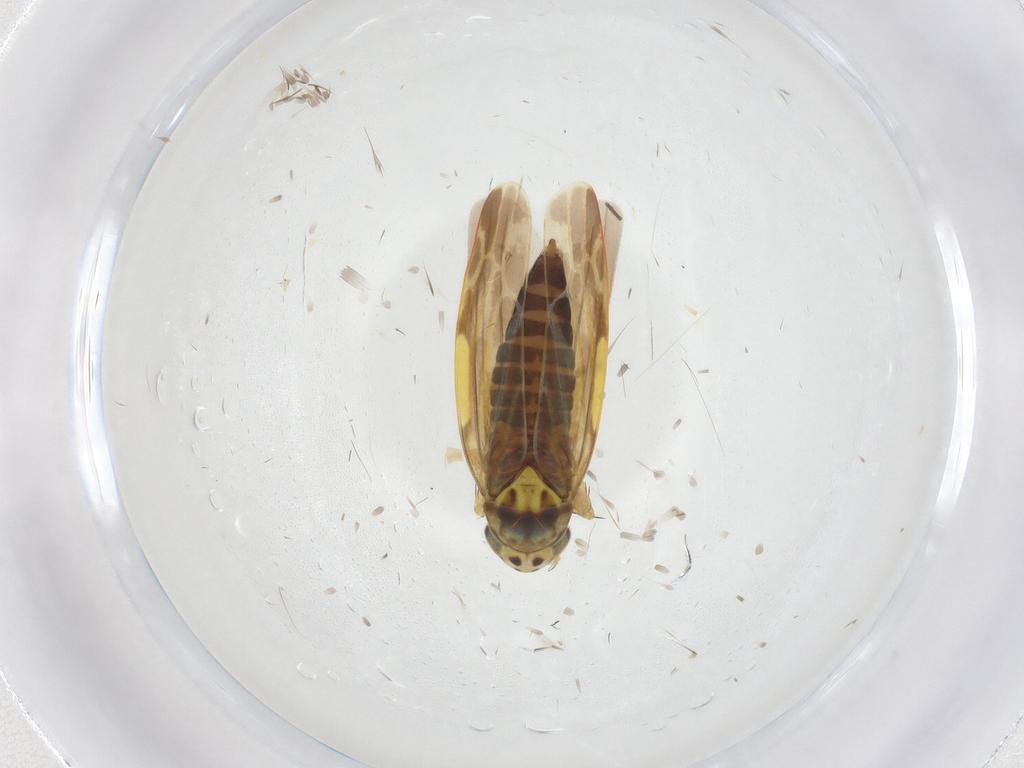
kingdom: Animalia
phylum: Arthropoda
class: Insecta
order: Hemiptera
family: Cicadellidae
